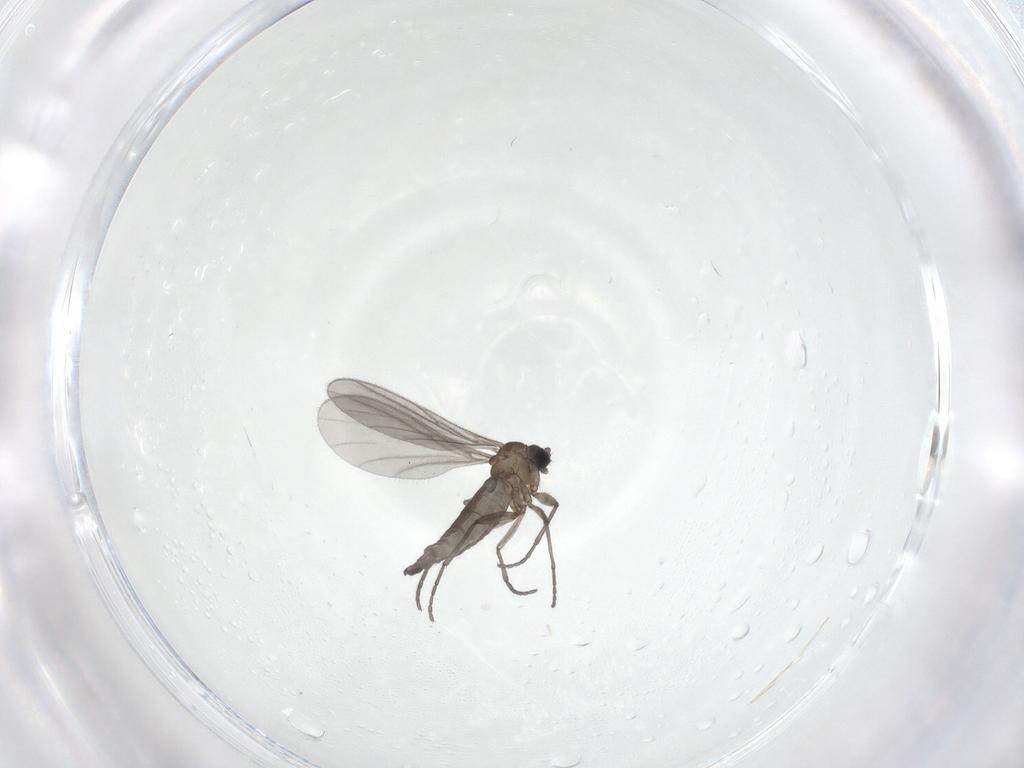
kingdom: Animalia
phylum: Arthropoda
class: Insecta
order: Diptera
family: Sciaridae
